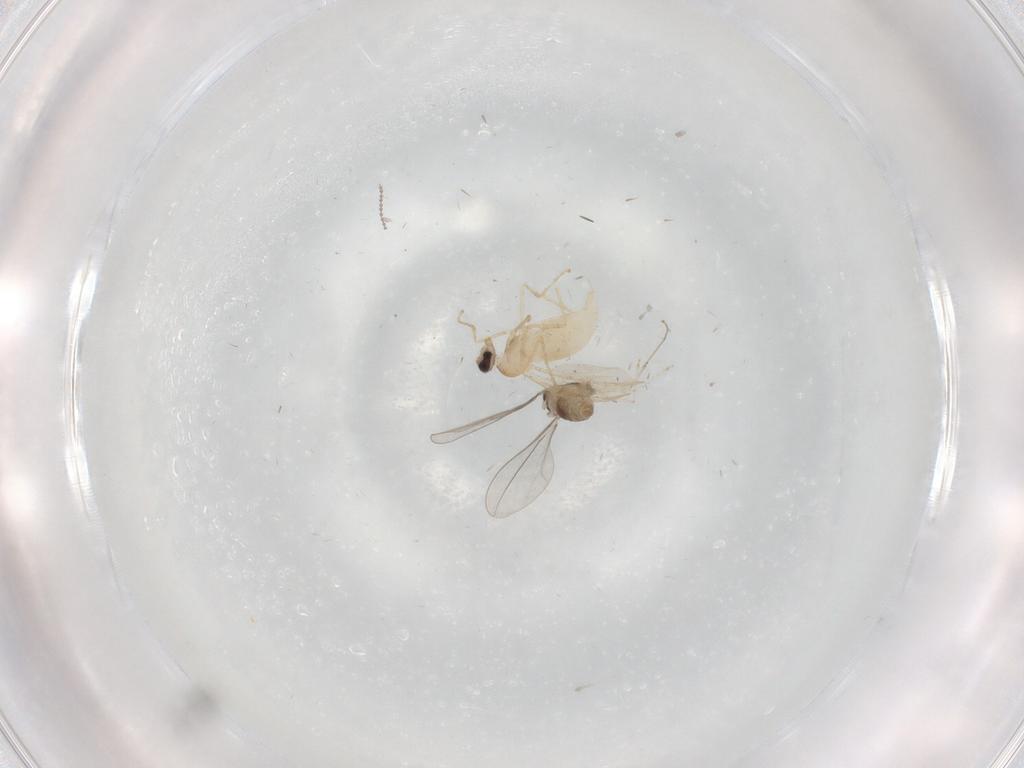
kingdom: Animalia
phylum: Arthropoda
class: Insecta
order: Diptera
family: Cecidomyiidae
